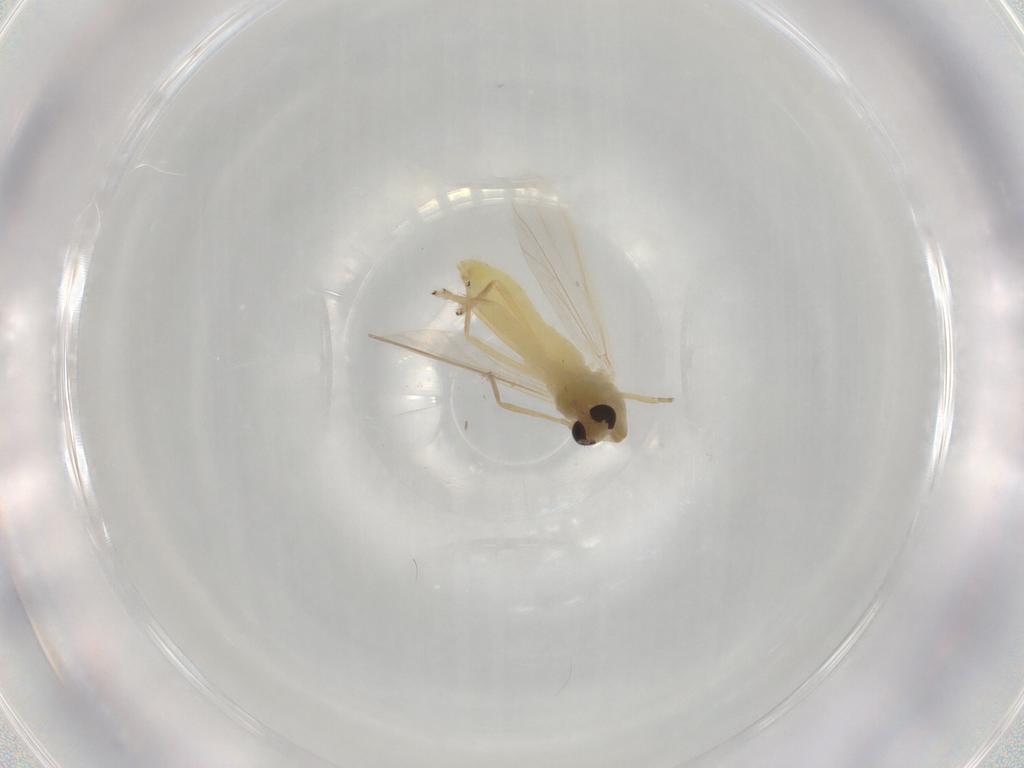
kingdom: Animalia
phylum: Arthropoda
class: Insecta
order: Diptera
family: Chironomidae
